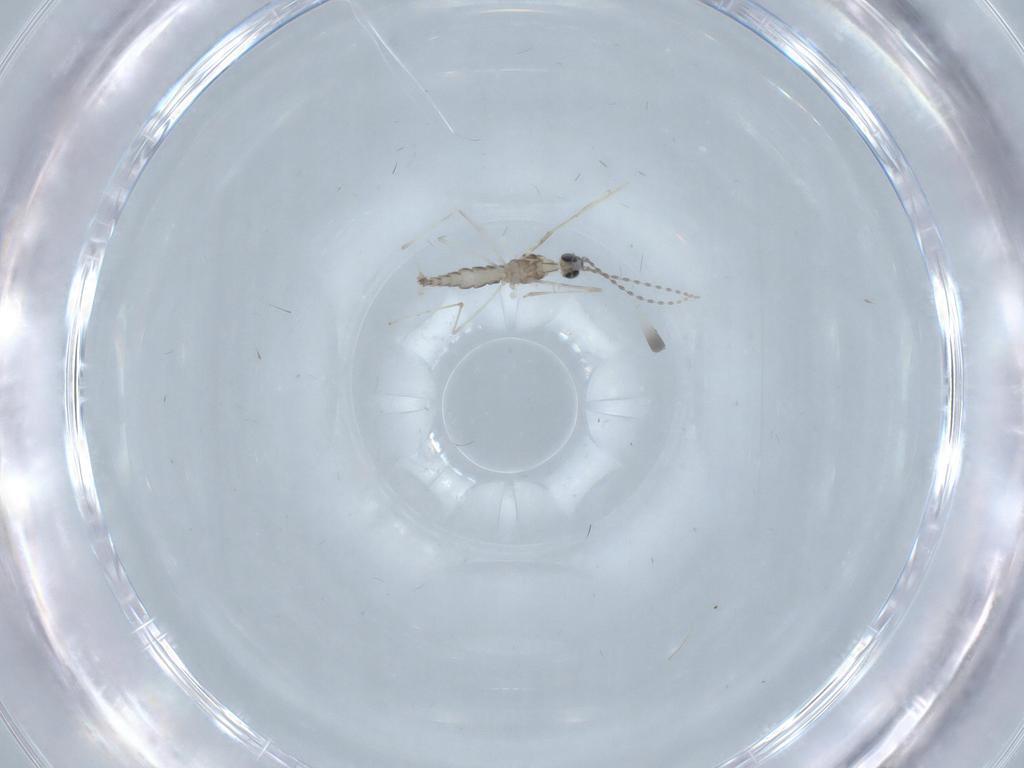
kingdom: Animalia
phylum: Arthropoda
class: Insecta
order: Diptera
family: Cecidomyiidae
